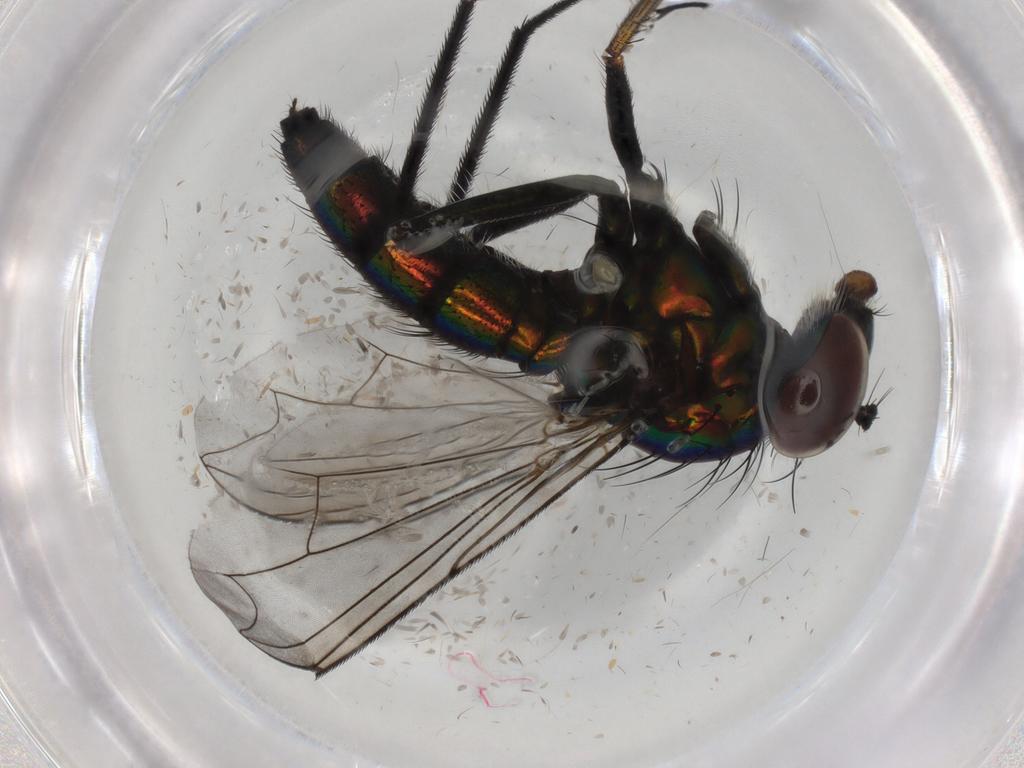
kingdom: Animalia
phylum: Arthropoda
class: Insecta
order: Diptera
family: Dolichopodidae
